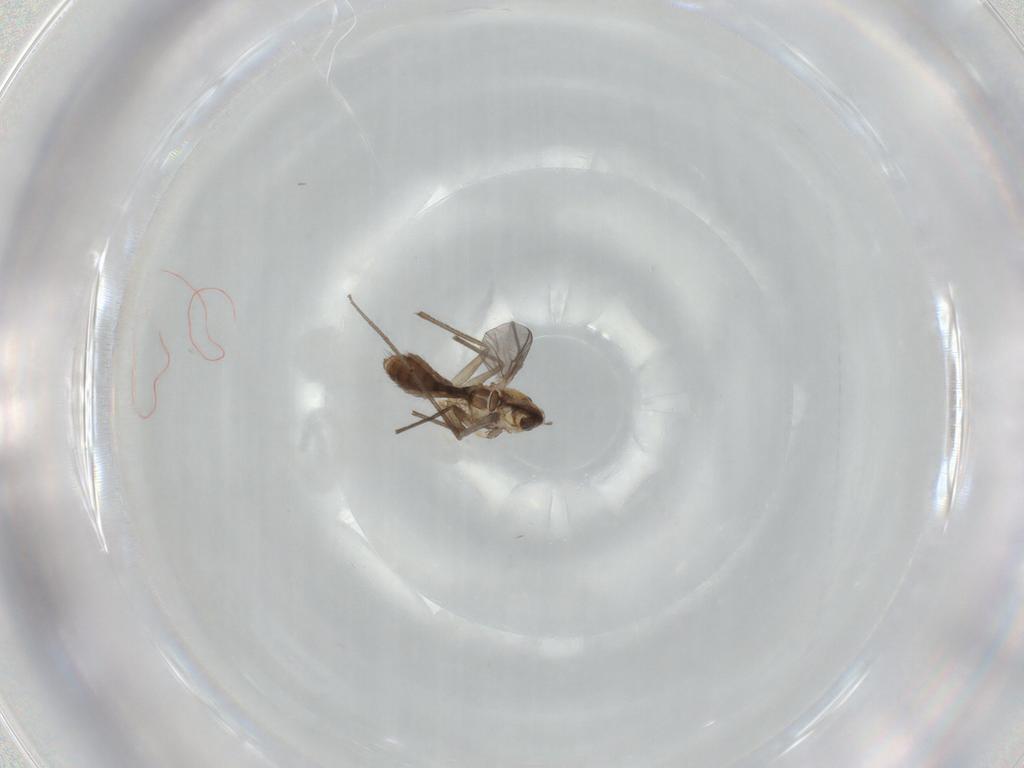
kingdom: Animalia
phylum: Arthropoda
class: Insecta
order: Diptera
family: Chironomidae
